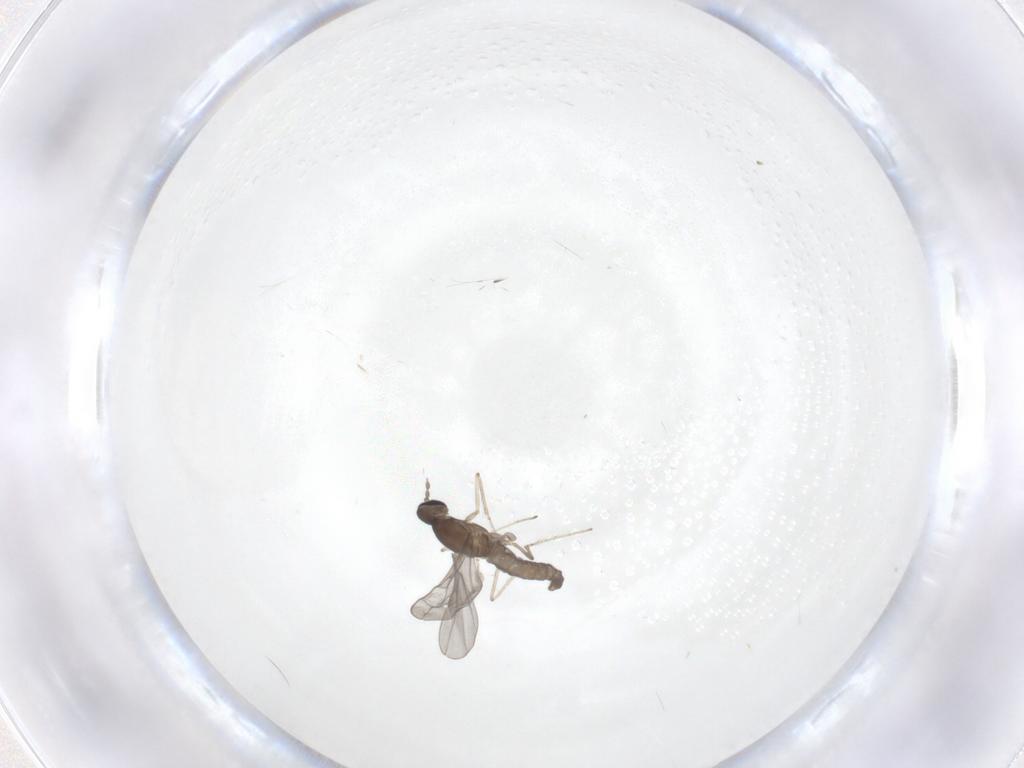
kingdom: Animalia
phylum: Arthropoda
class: Insecta
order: Diptera
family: Cecidomyiidae
